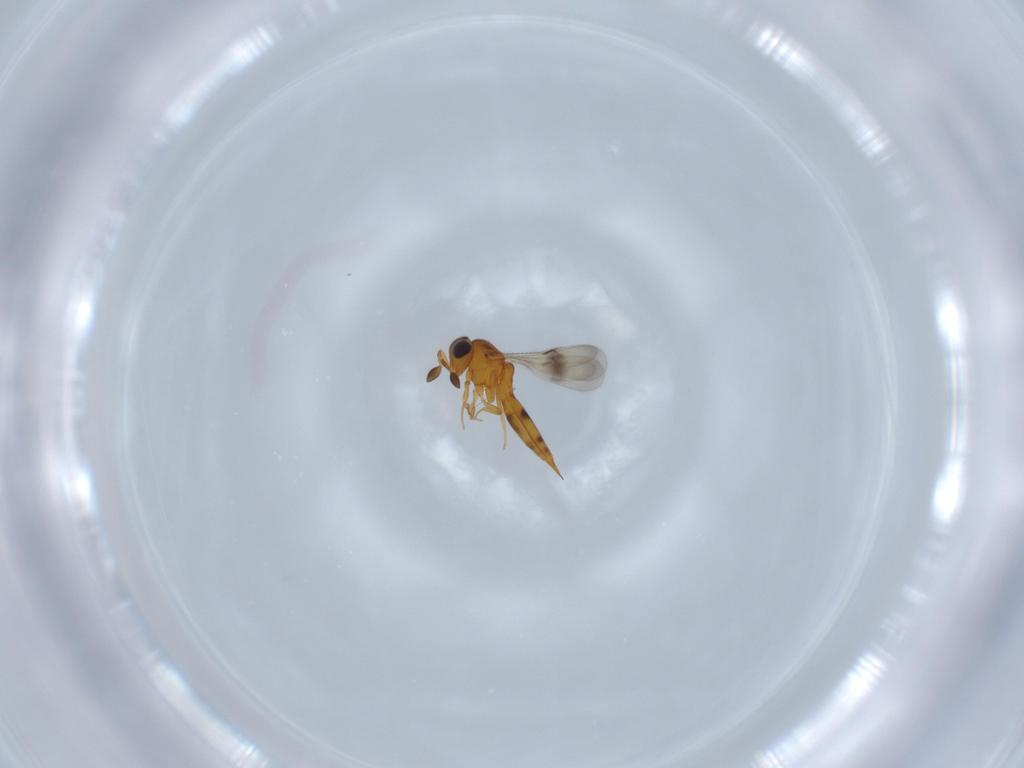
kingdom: Animalia
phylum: Arthropoda
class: Insecta
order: Hymenoptera
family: Scelionidae
